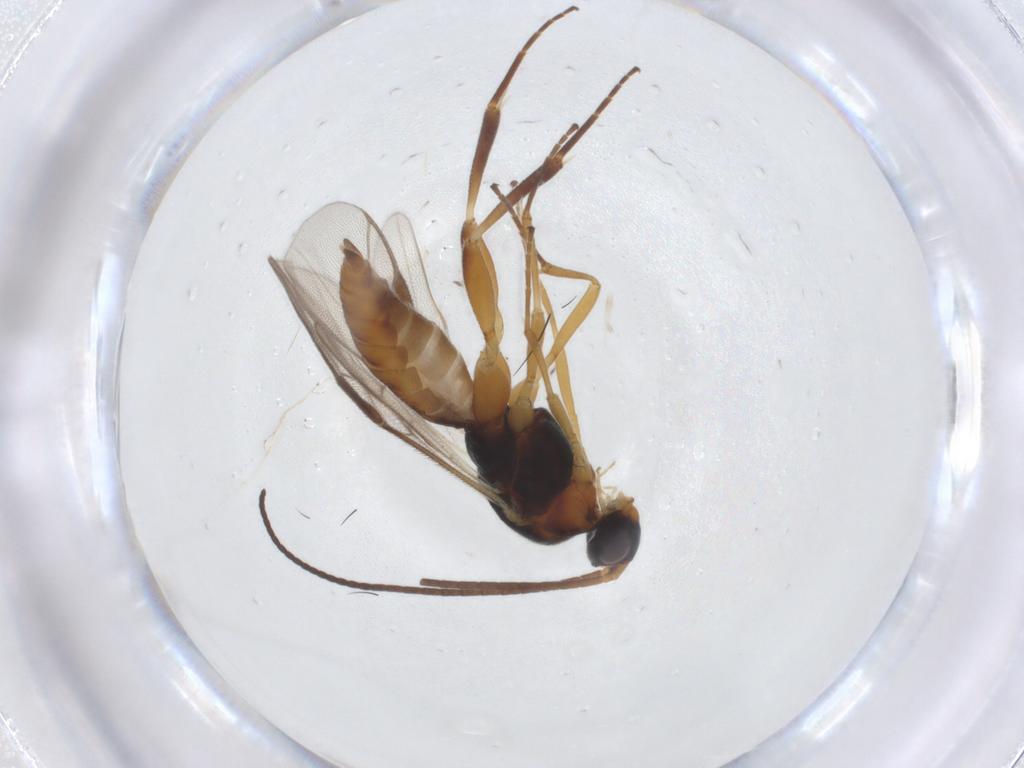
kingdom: Animalia
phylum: Arthropoda
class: Insecta
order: Hymenoptera
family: Braconidae
